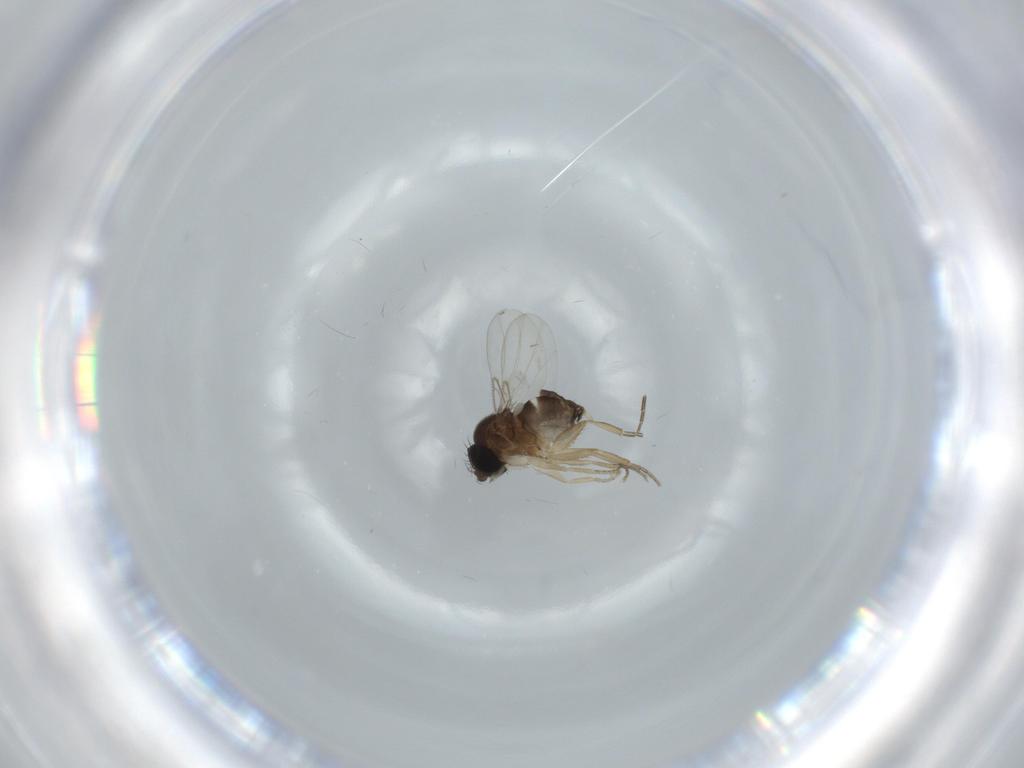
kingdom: Animalia
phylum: Arthropoda
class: Insecta
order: Diptera
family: Phoridae
